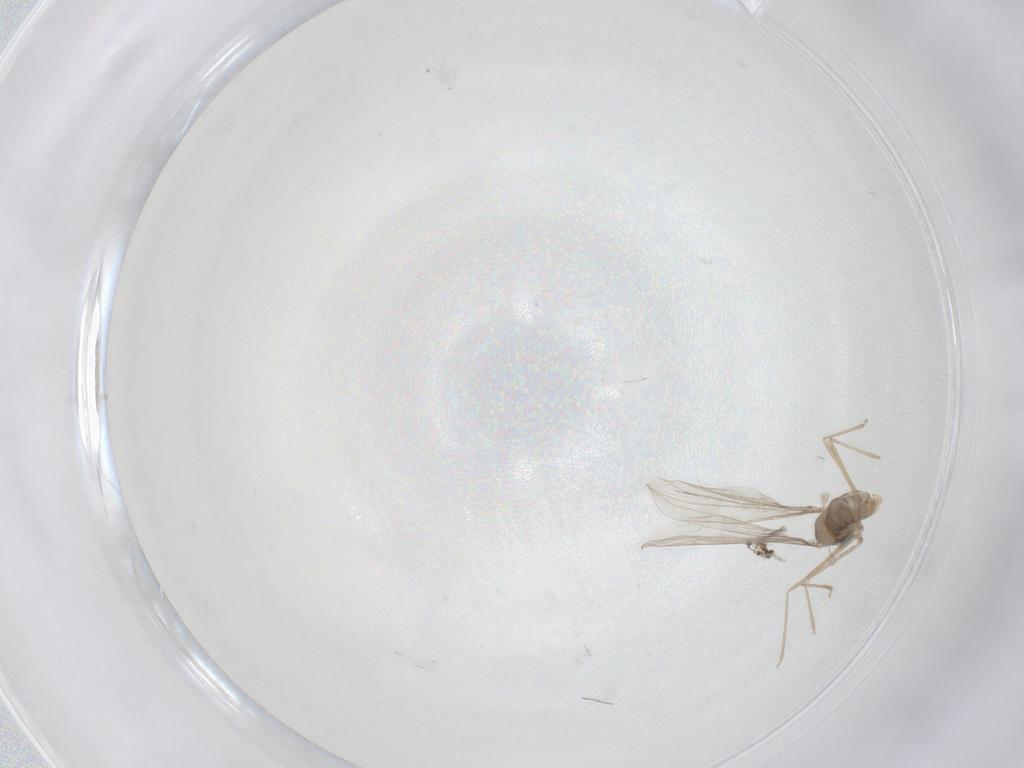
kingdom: Animalia
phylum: Arthropoda
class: Insecta
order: Diptera
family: Cecidomyiidae
